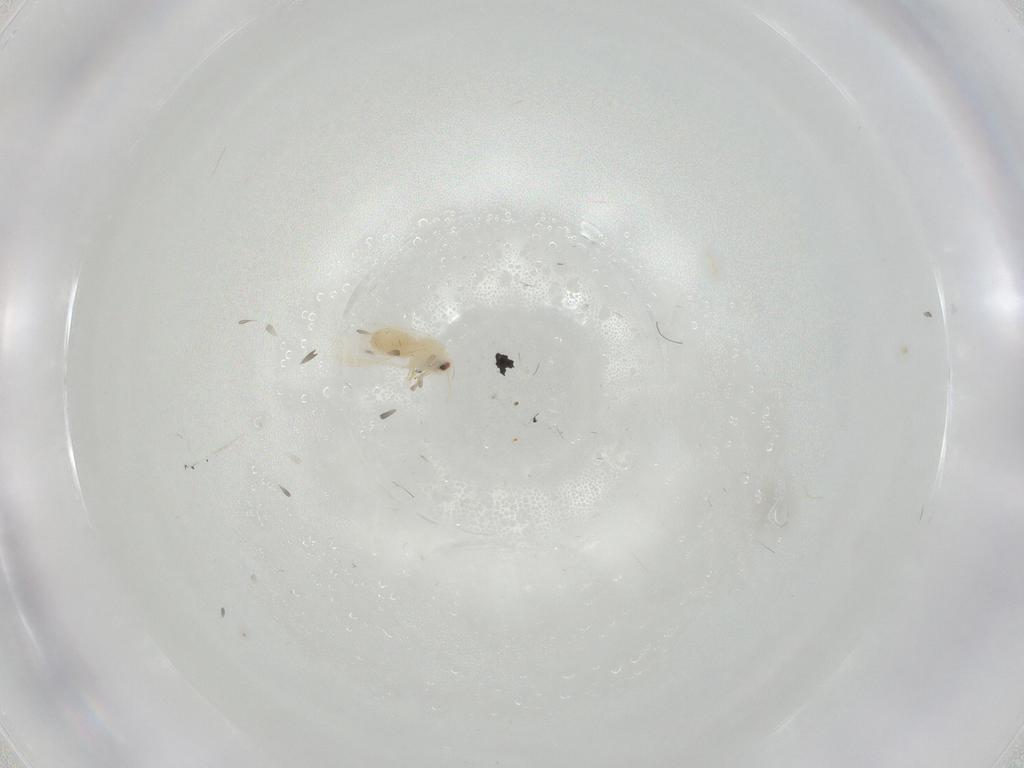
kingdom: Animalia
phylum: Arthropoda
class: Insecta
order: Hemiptera
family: Aleyrodidae
